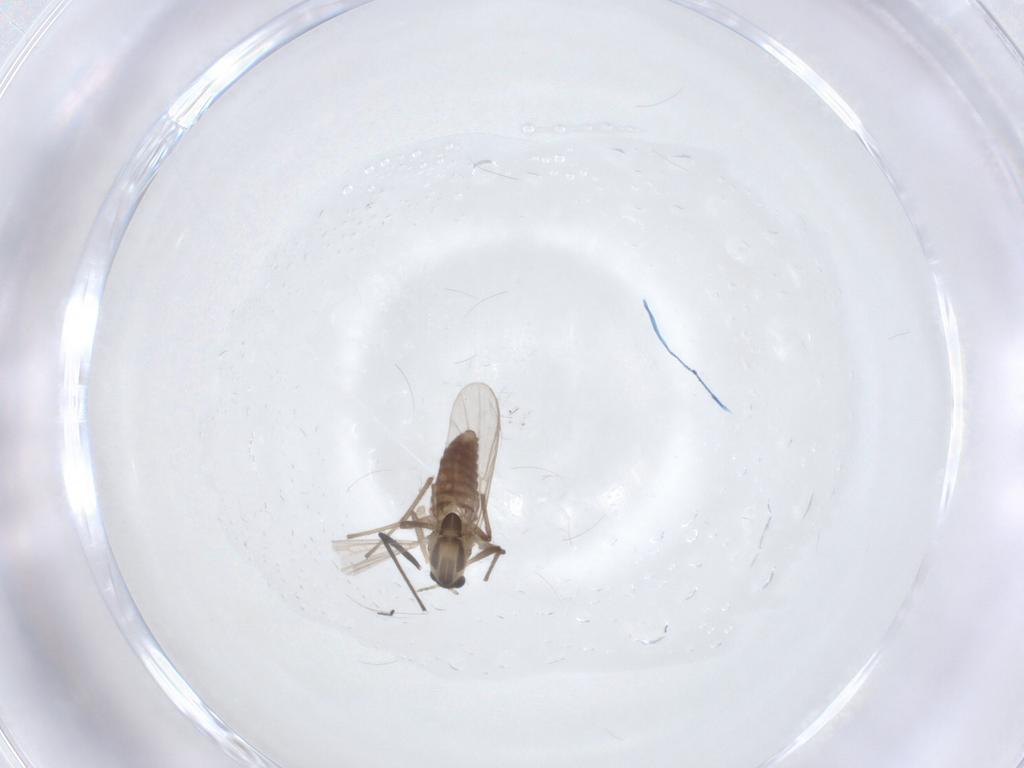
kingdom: Animalia
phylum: Arthropoda
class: Insecta
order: Diptera
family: Chironomidae
